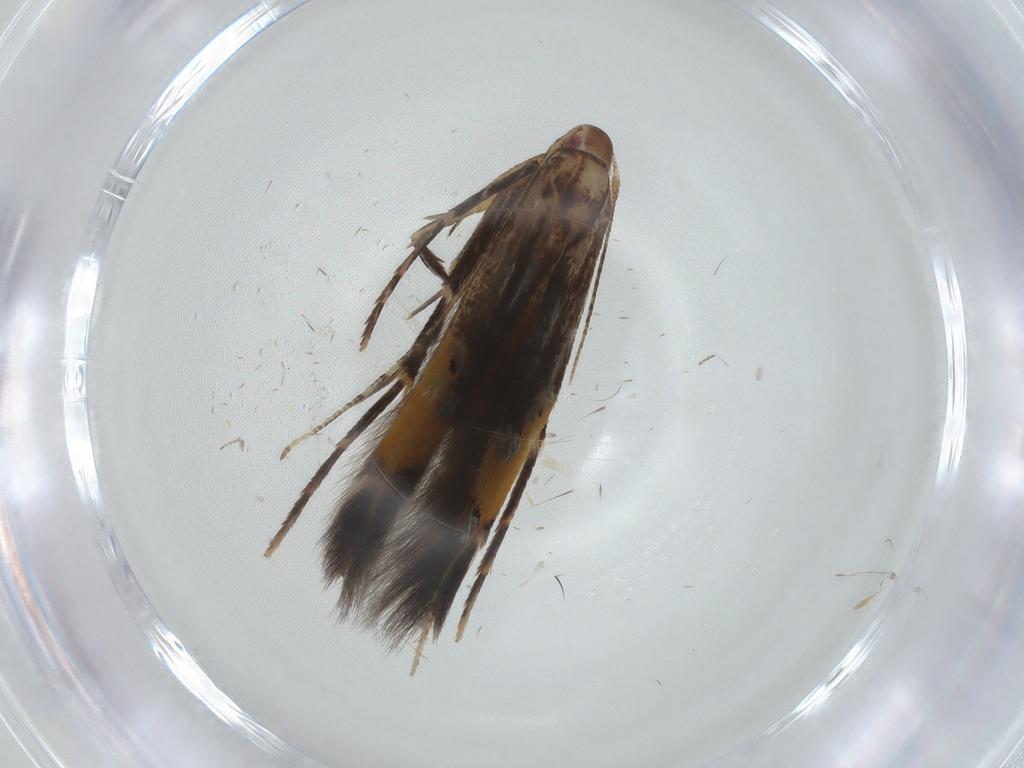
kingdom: Animalia
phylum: Arthropoda
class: Insecta
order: Lepidoptera
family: Cosmopterigidae
